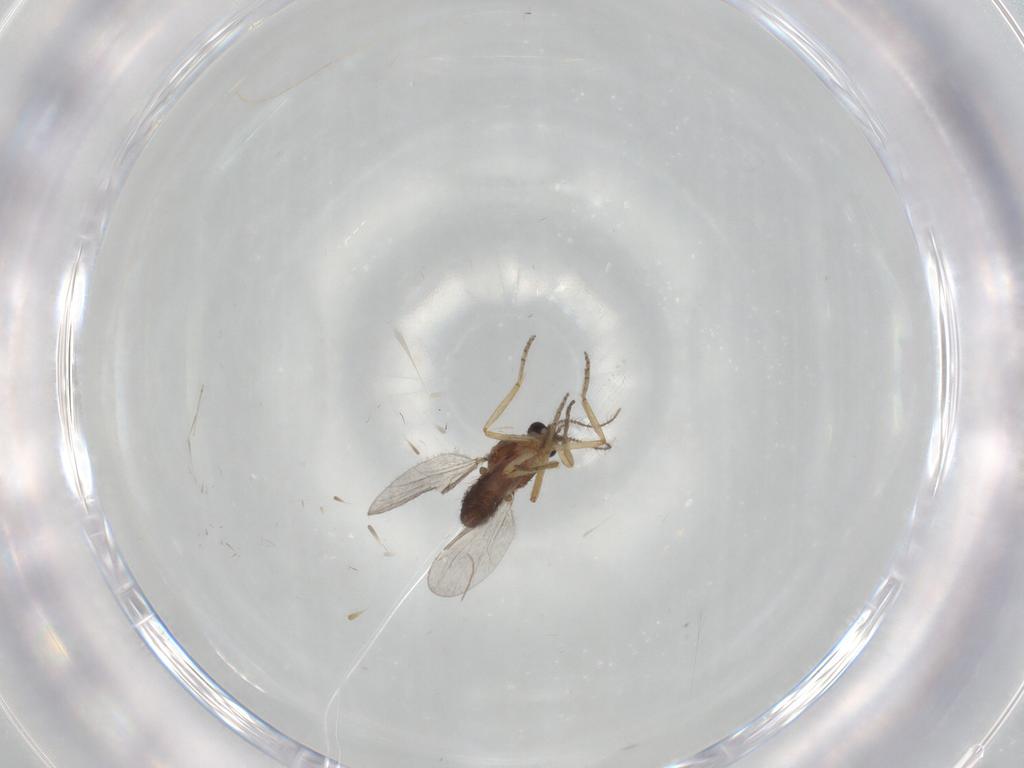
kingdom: Animalia
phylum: Arthropoda
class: Insecta
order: Diptera
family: Ceratopogonidae
